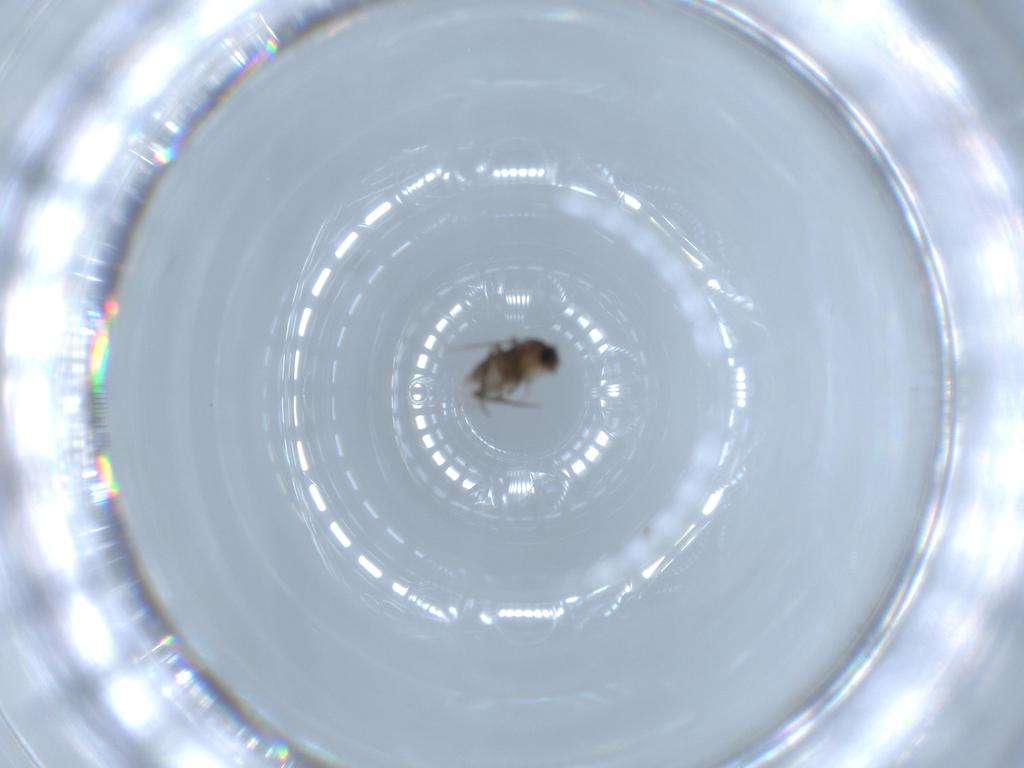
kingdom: Animalia
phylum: Arthropoda
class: Insecta
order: Diptera
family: Phoridae
